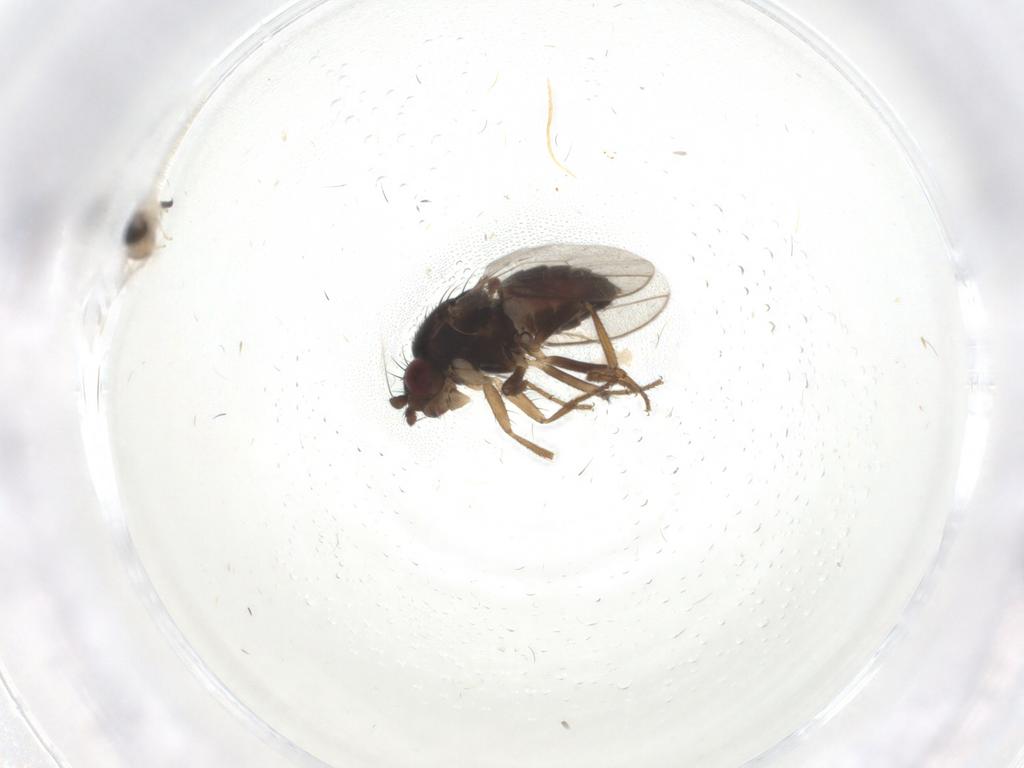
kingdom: Animalia
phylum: Arthropoda
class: Insecta
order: Diptera
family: Sphaeroceridae
